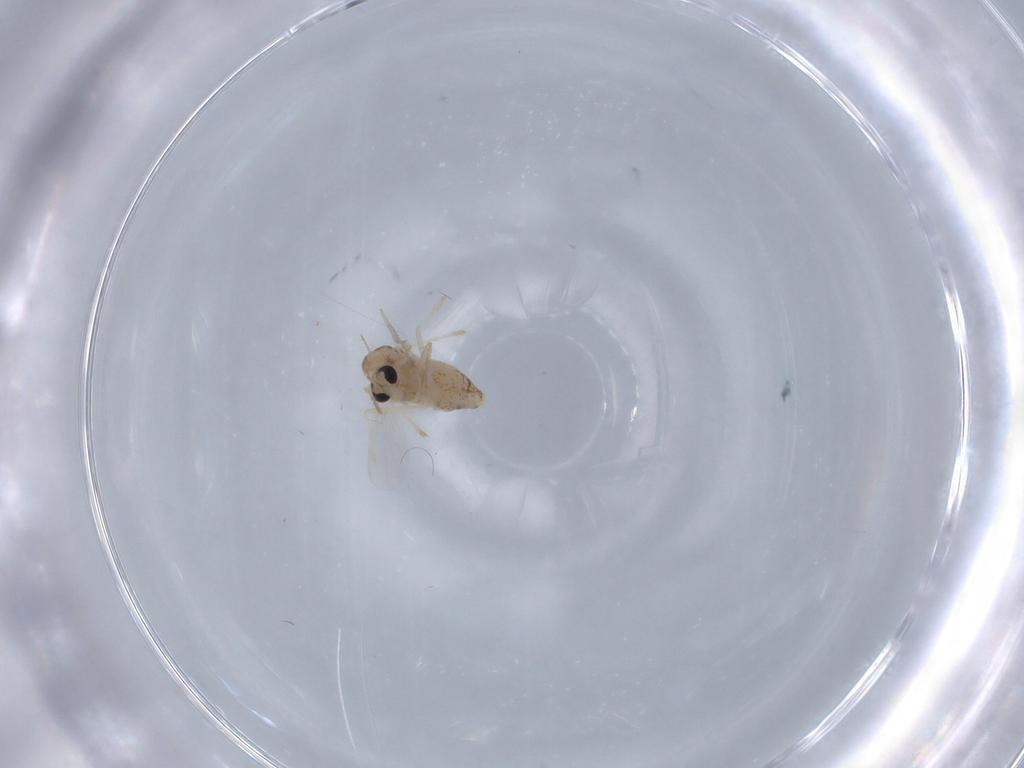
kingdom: Animalia
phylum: Arthropoda
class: Insecta
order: Diptera
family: Chironomidae
